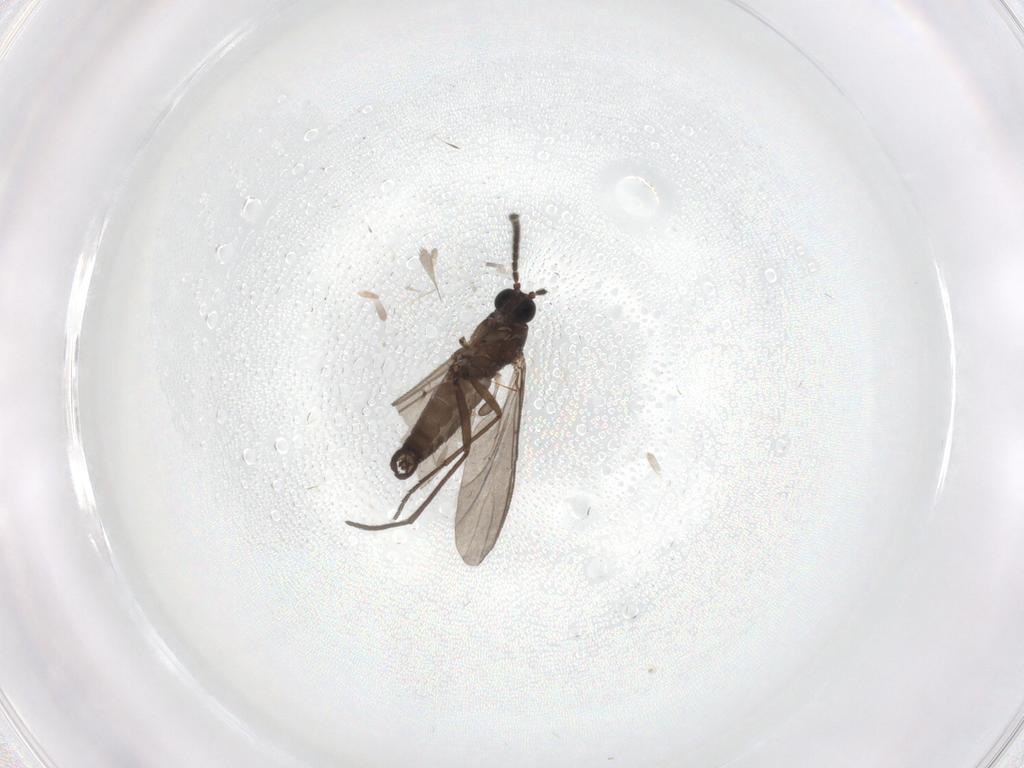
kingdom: Animalia
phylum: Arthropoda
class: Insecta
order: Diptera
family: Sciaridae
